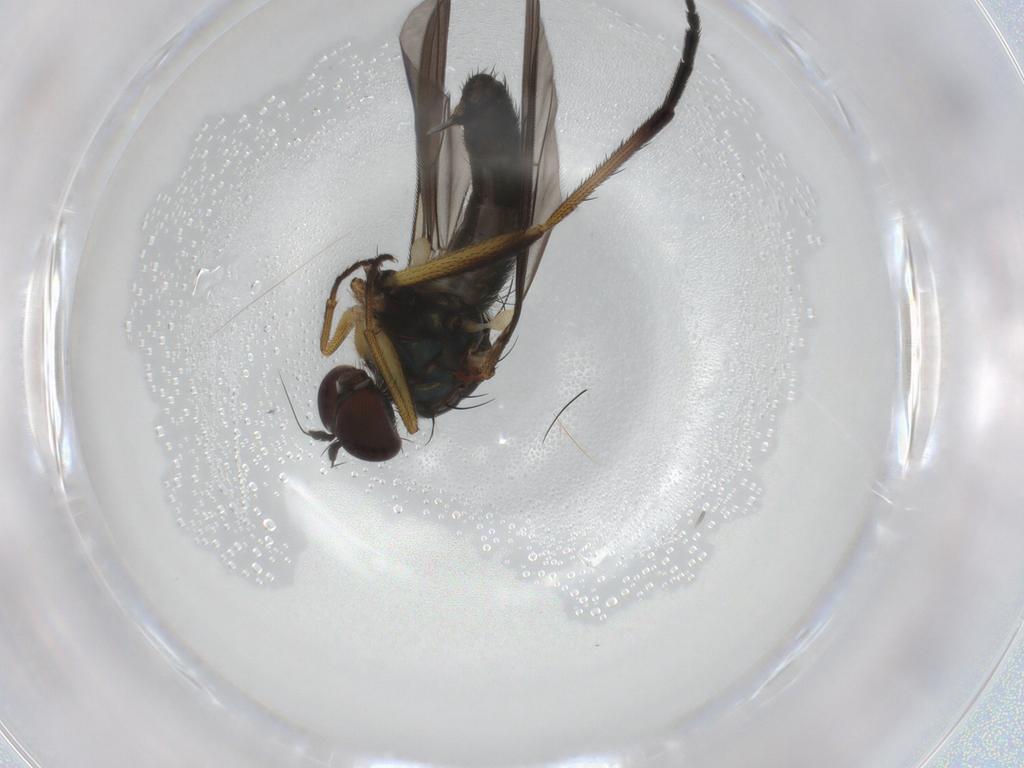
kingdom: Animalia
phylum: Arthropoda
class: Insecta
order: Diptera
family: Dolichopodidae
